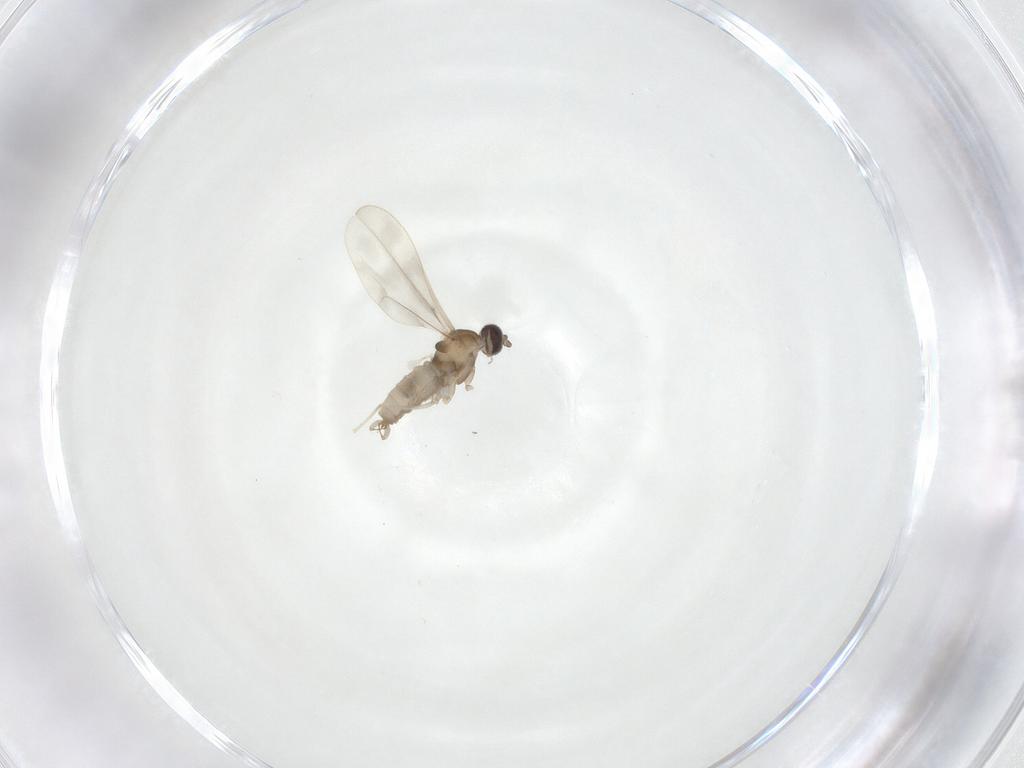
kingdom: Animalia
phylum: Arthropoda
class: Insecta
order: Diptera
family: Cecidomyiidae
